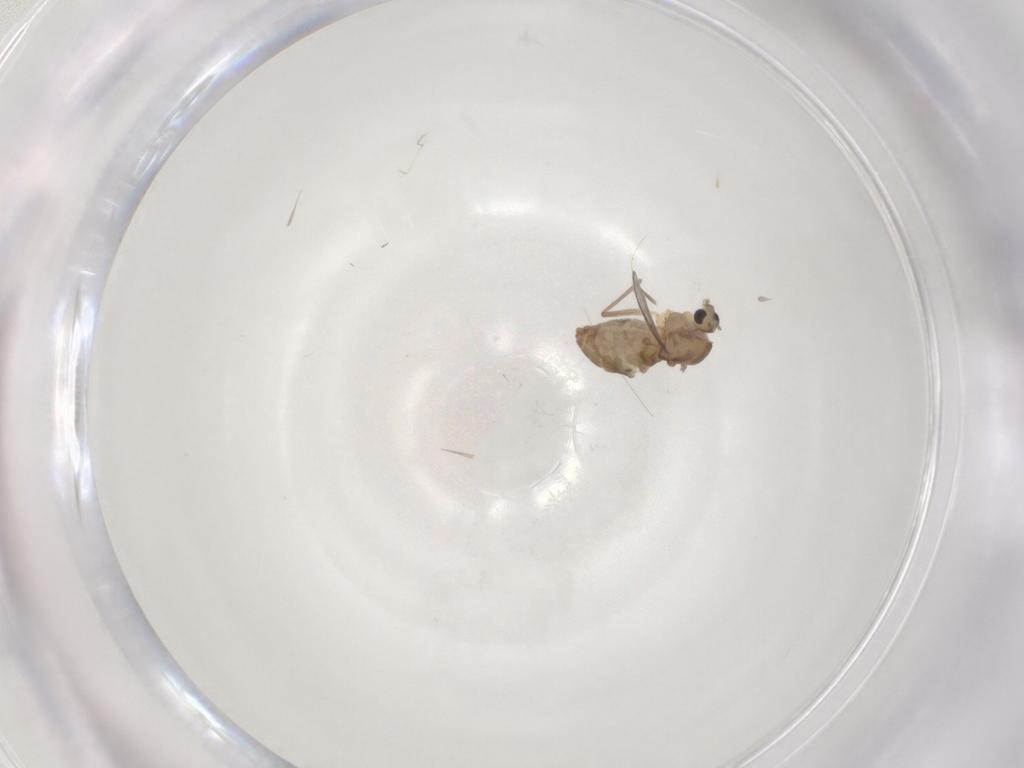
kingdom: Animalia
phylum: Arthropoda
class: Insecta
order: Diptera
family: Chironomidae
